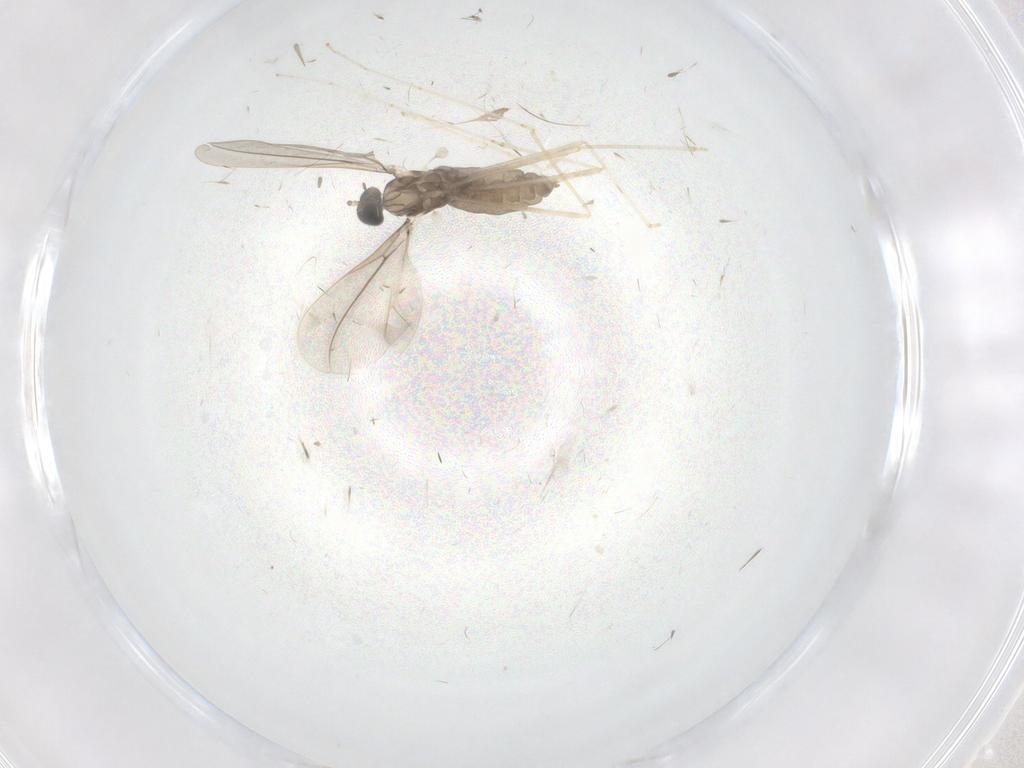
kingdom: Animalia
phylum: Arthropoda
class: Insecta
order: Diptera
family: Cecidomyiidae
